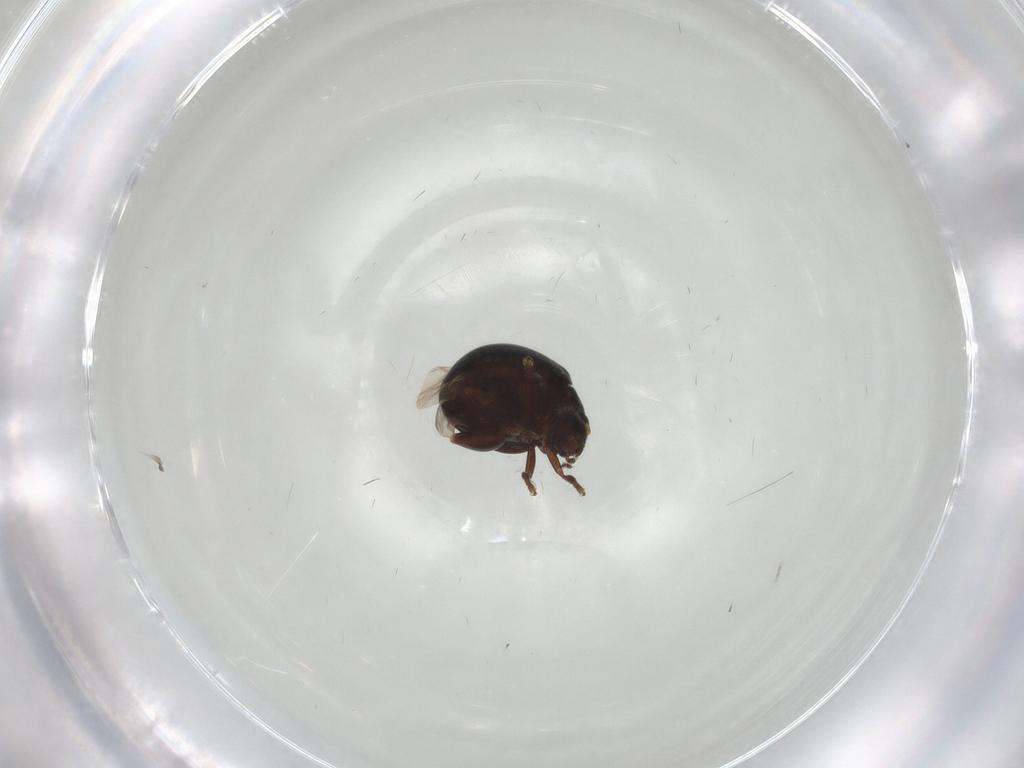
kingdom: Animalia
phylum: Arthropoda
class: Insecta
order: Coleoptera
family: Chrysomelidae
